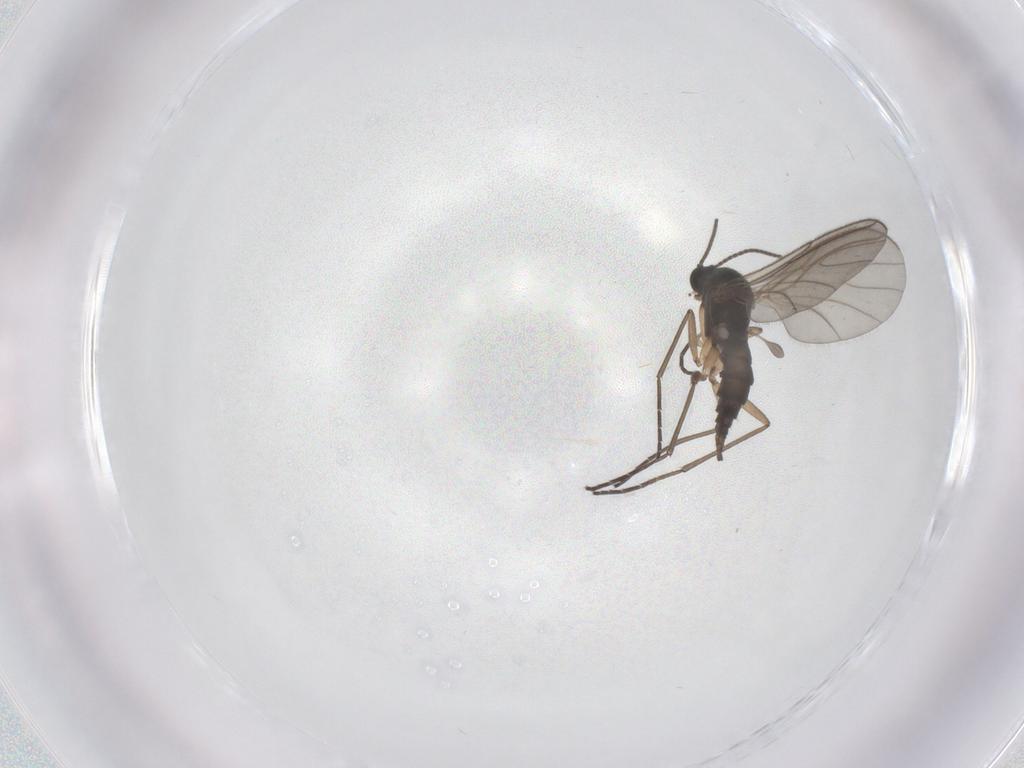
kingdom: Animalia
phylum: Arthropoda
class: Insecta
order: Diptera
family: Sciaridae
